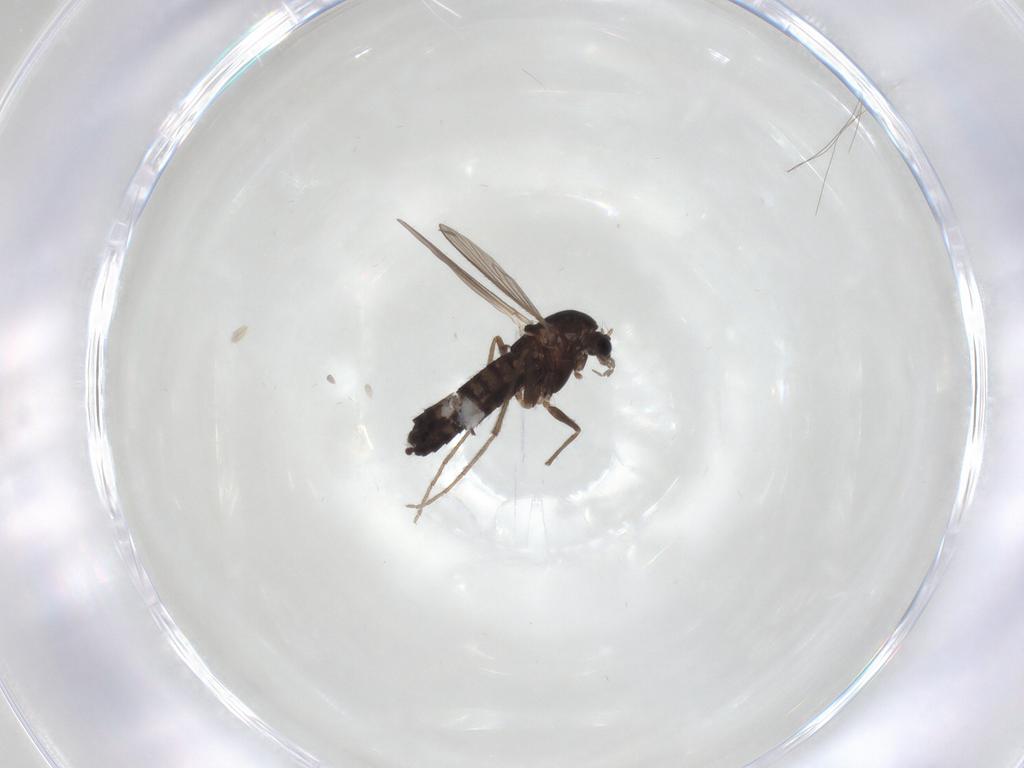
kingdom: Animalia
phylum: Arthropoda
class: Insecta
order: Diptera
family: Chironomidae
